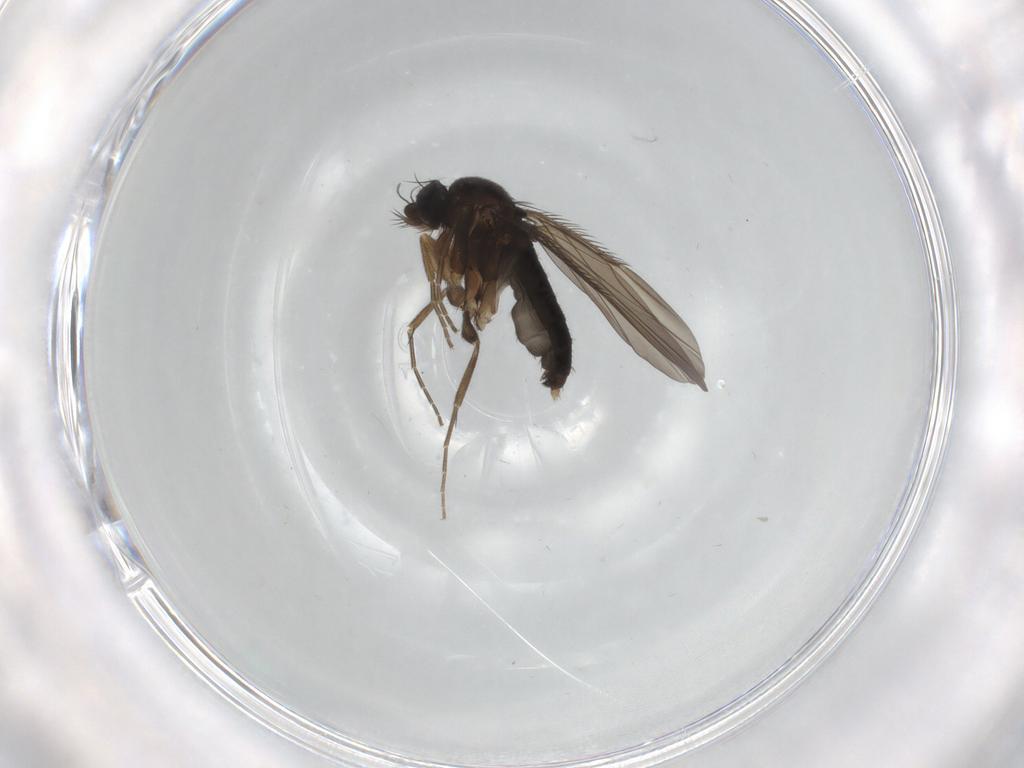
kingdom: Animalia
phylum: Arthropoda
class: Insecta
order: Diptera
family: Phoridae
